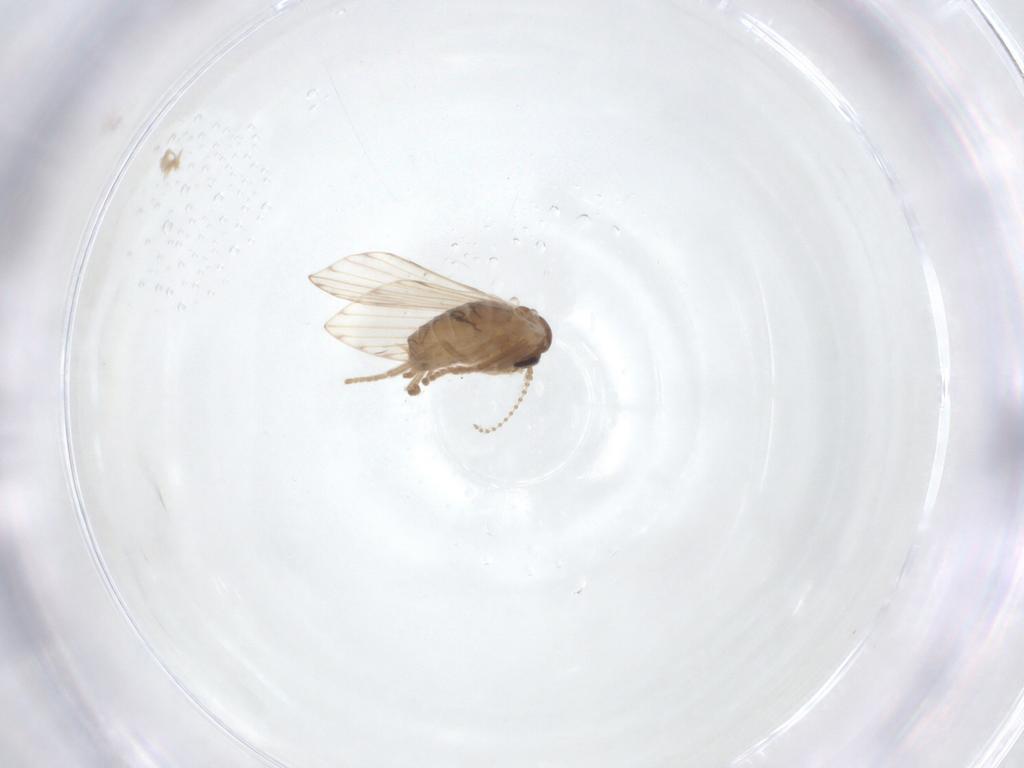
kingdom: Animalia
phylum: Arthropoda
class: Insecta
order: Diptera
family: Psychodidae
